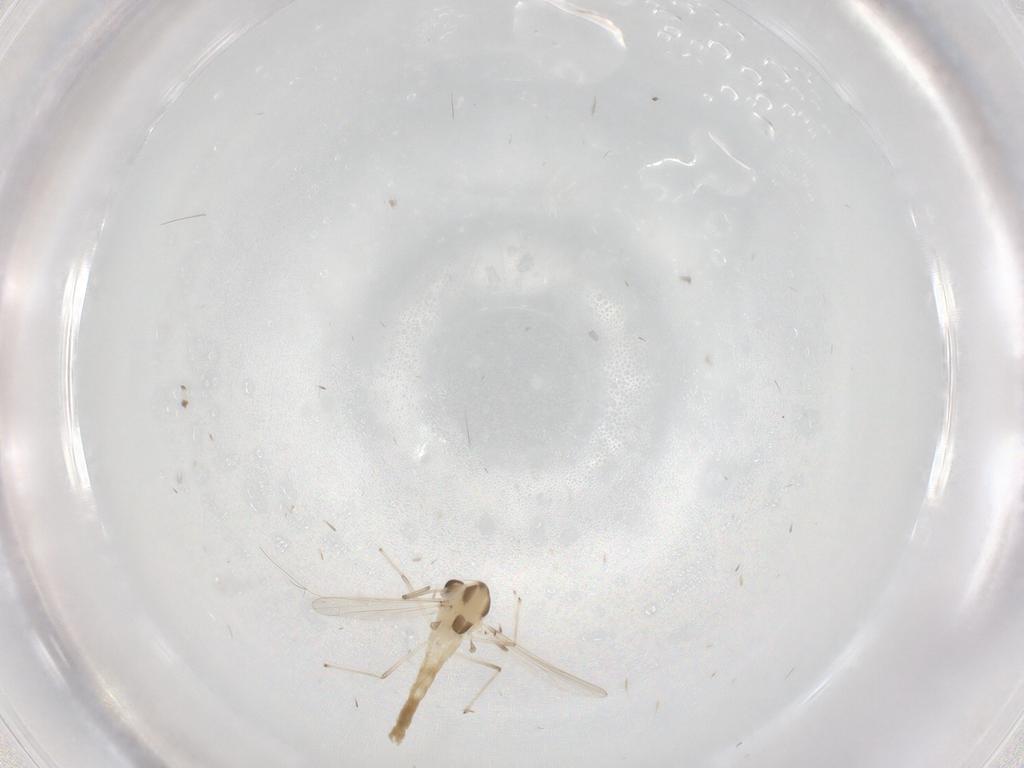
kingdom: Animalia
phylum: Arthropoda
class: Insecta
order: Diptera
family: Chironomidae
